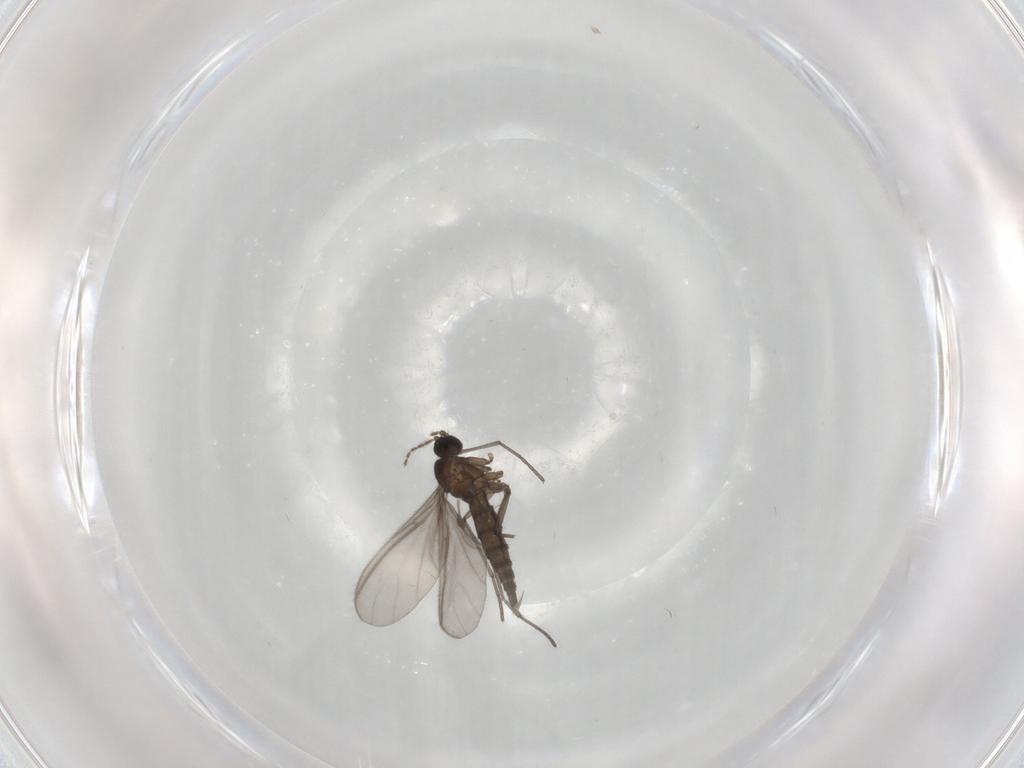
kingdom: Animalia
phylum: Arthropoda
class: Insecta
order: Diptera
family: Sciaridae
